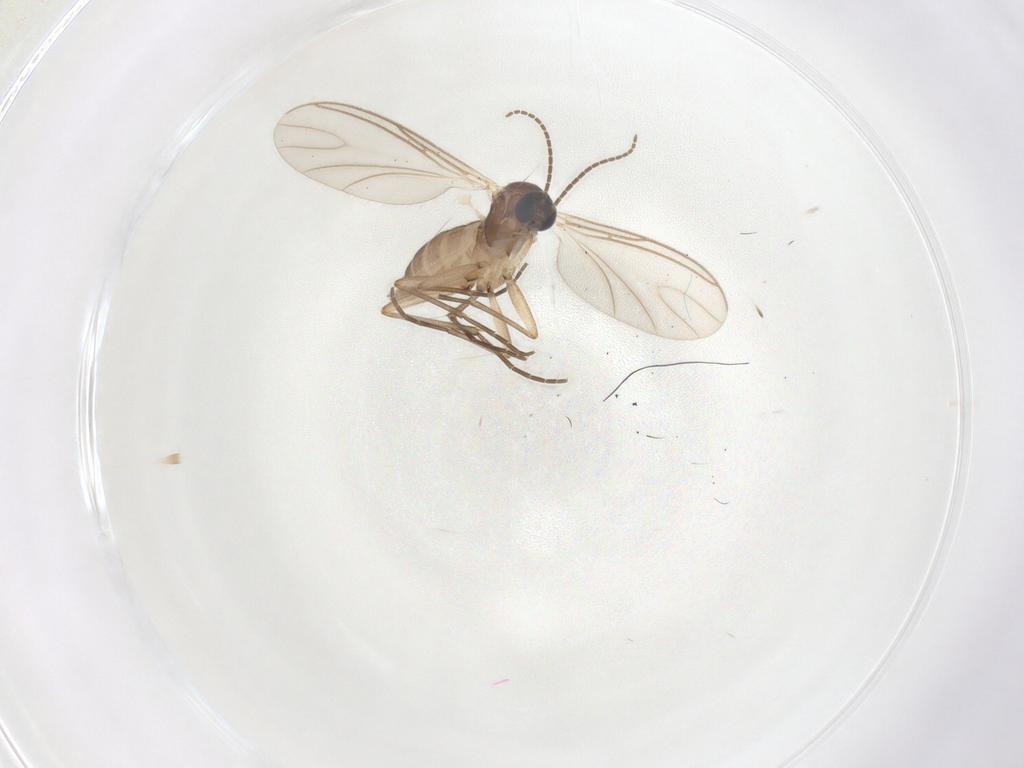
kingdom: Animalia
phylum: Arthropoda
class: Insecta
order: Diptera
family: Sciaridae
